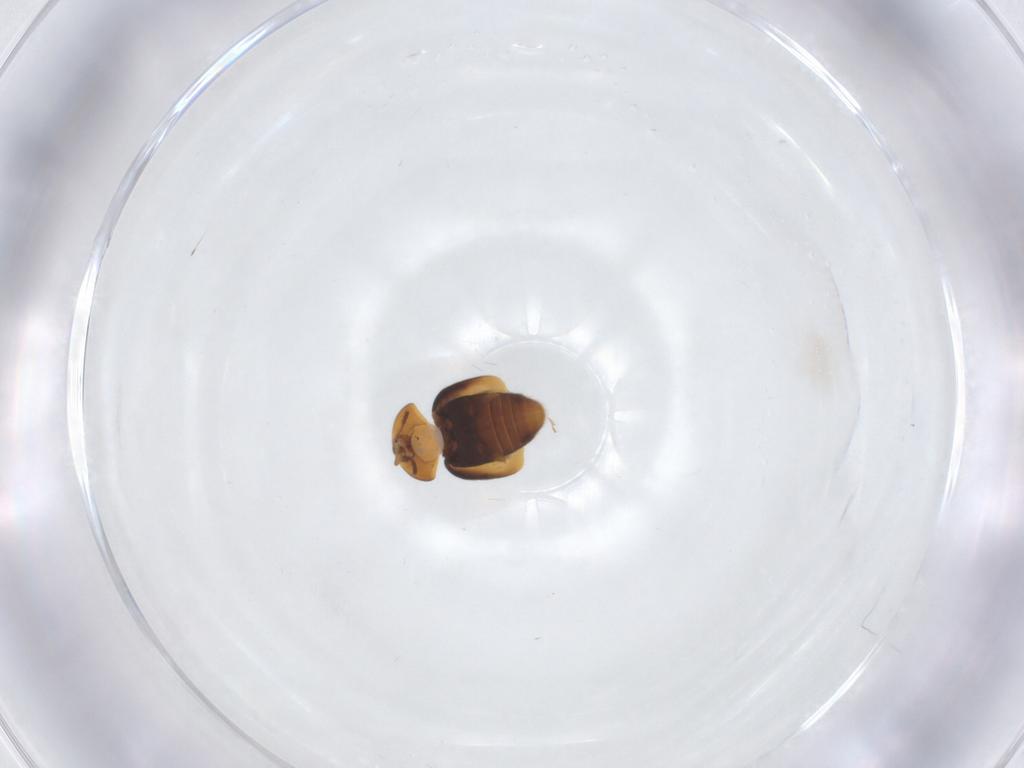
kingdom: Animalia
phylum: Arthropoda
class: Insecta
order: Coleoptera
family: Corylophidae
